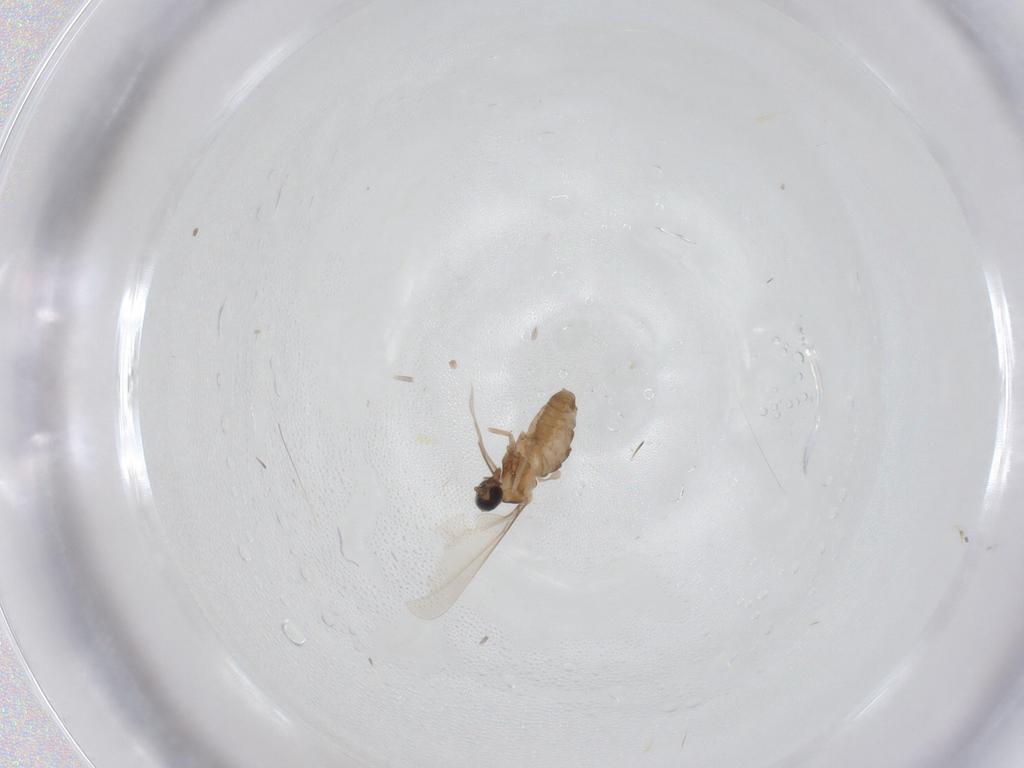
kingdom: Animalia
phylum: Arthropoda
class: Insecta
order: Diptera
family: Cecidomyiidae
